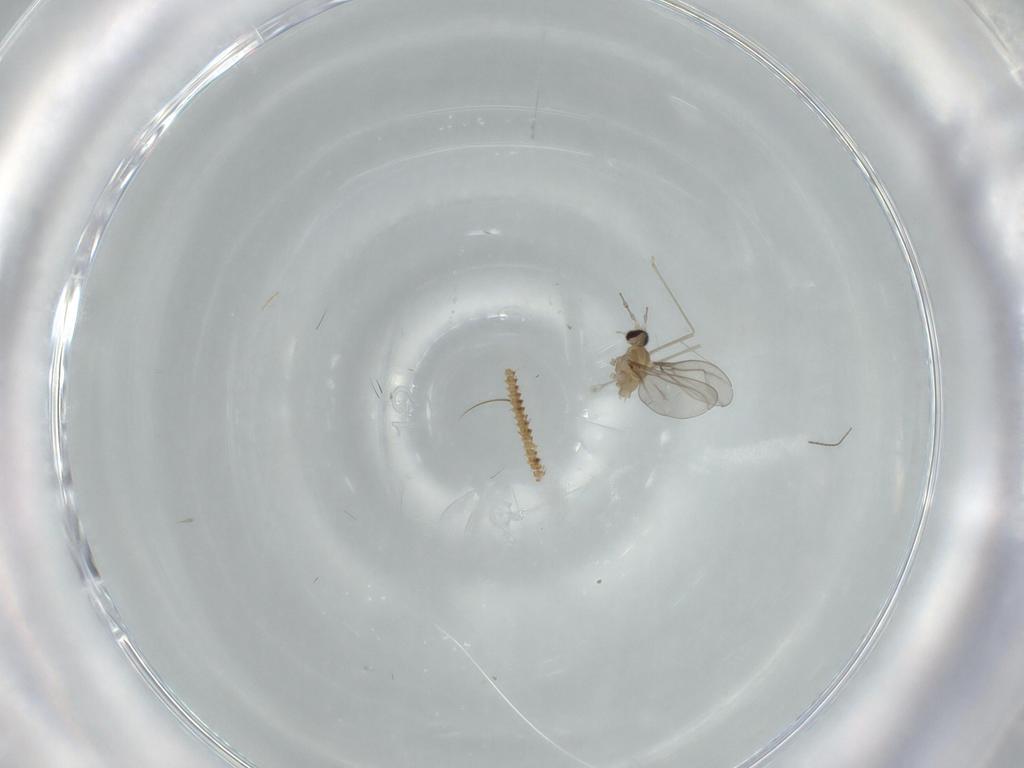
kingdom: Animalia
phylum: Arthropoda
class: Insecta
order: Diptera
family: Cecidomyiidae
